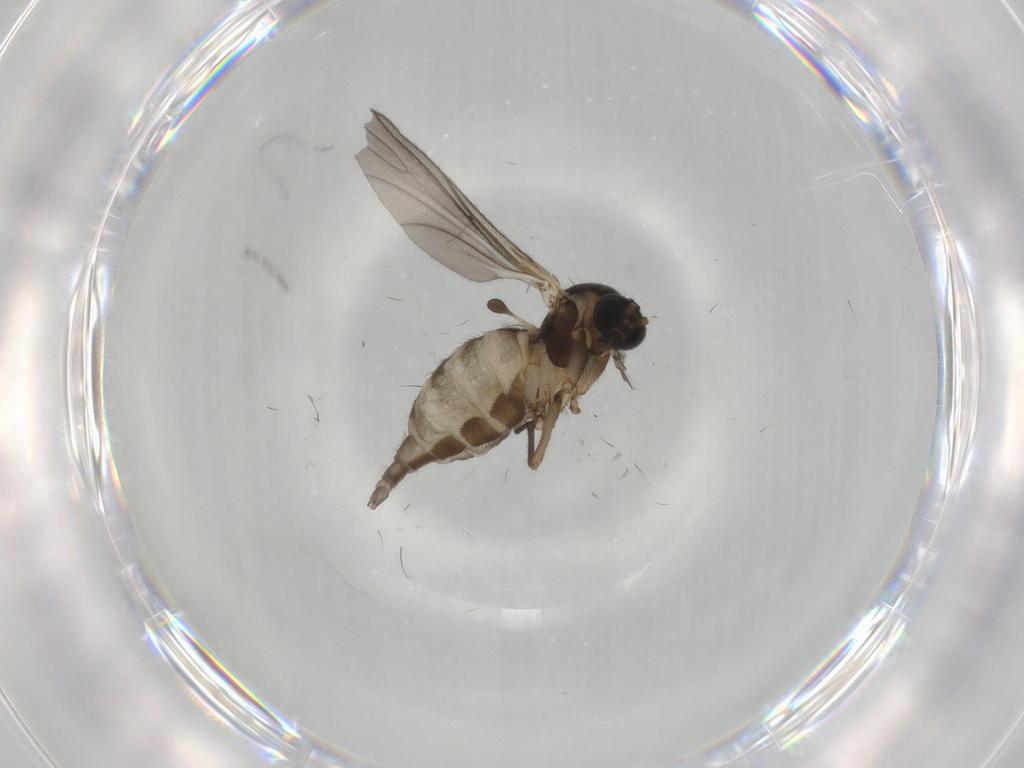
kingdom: Animalia
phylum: Arthropoda
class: Insecta
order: Diptera
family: Sciaridae
